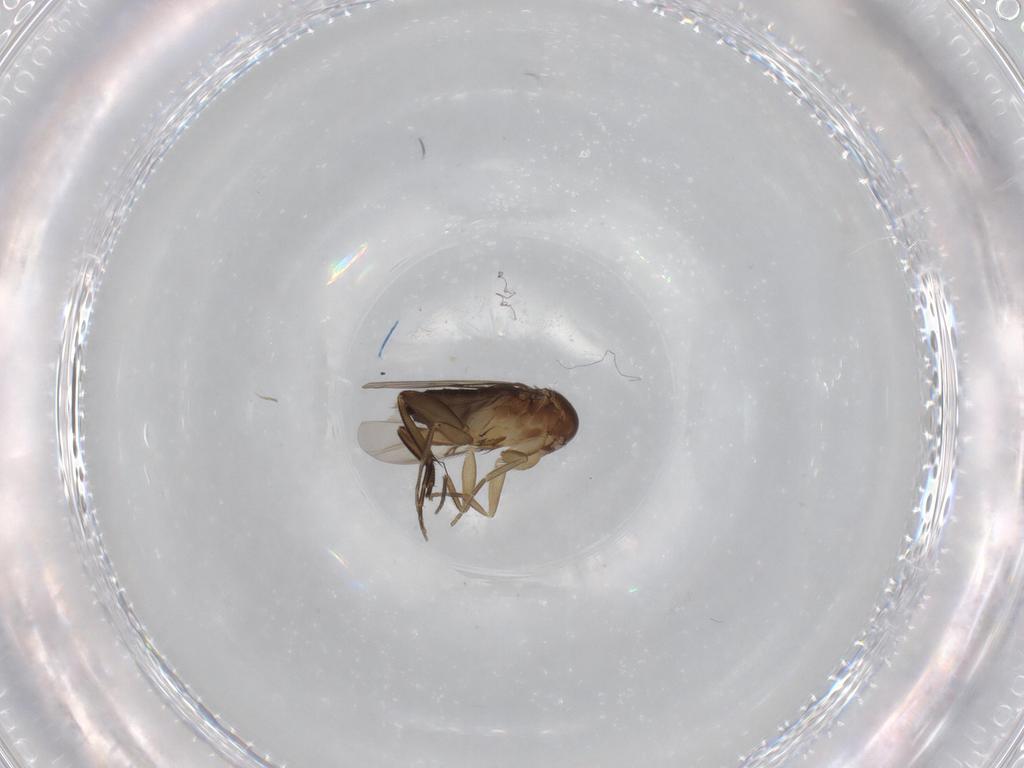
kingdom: Animalia
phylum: Arthropoda
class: Insecta
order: Diptera
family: Phoridae
